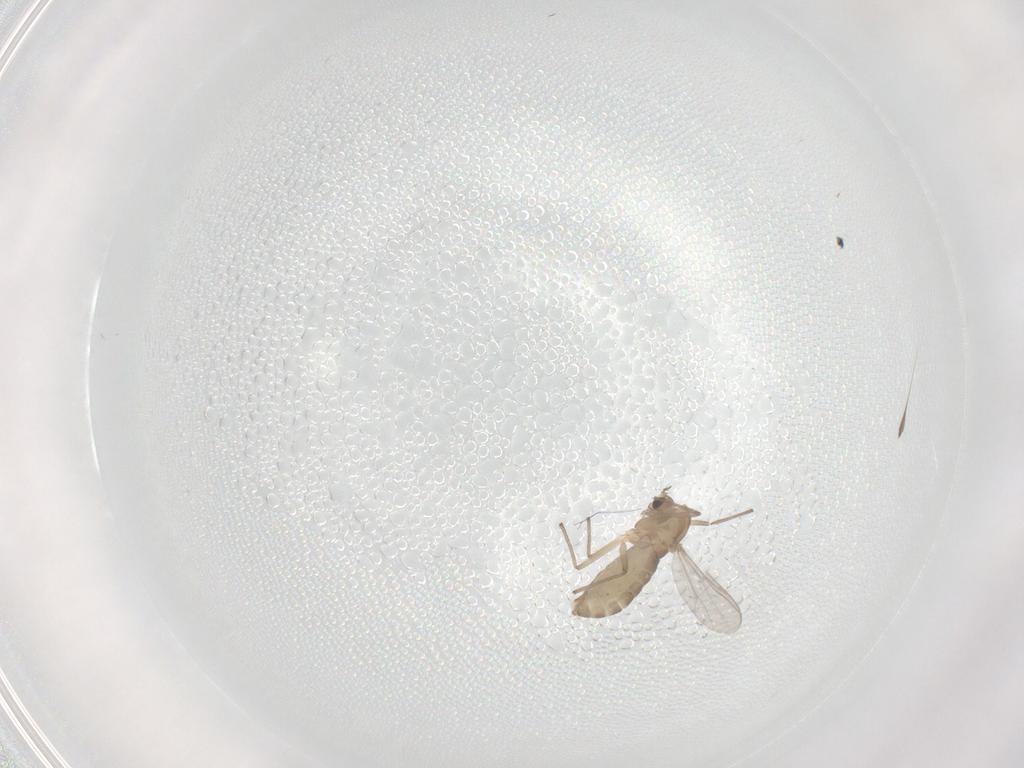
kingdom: Animalia
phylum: Arthropoda
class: Insecta
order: Diptera
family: Chironomidae
